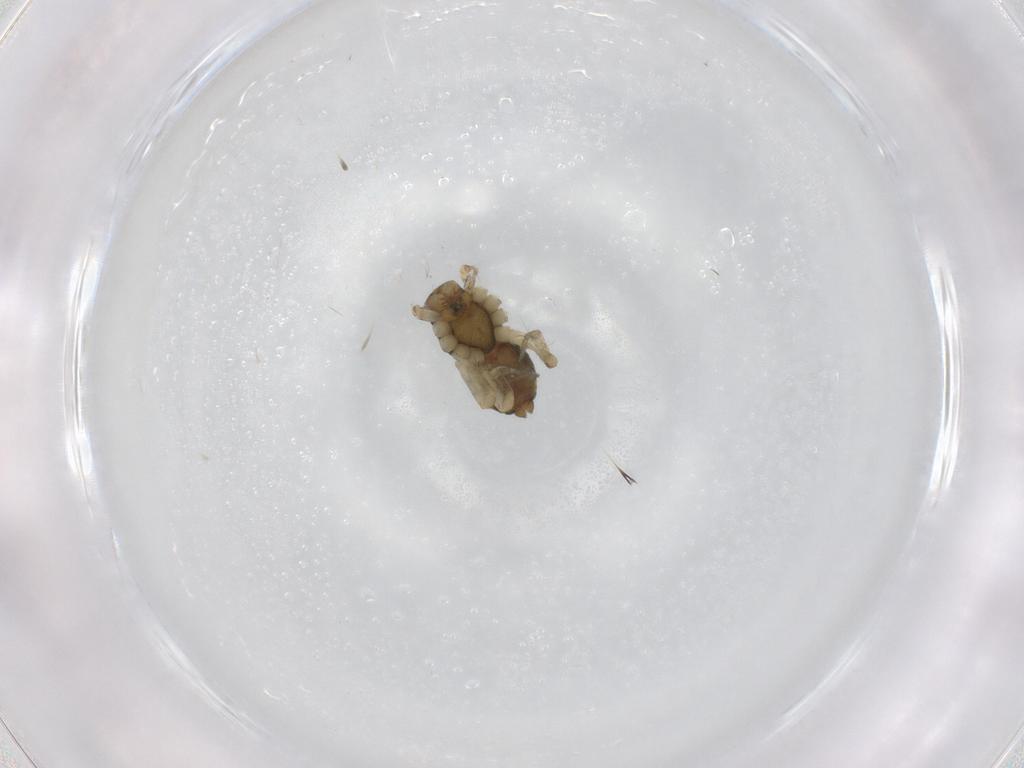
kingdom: Animalia
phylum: Arthropoda
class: Arachnida
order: Araneae
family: Pisauridae
